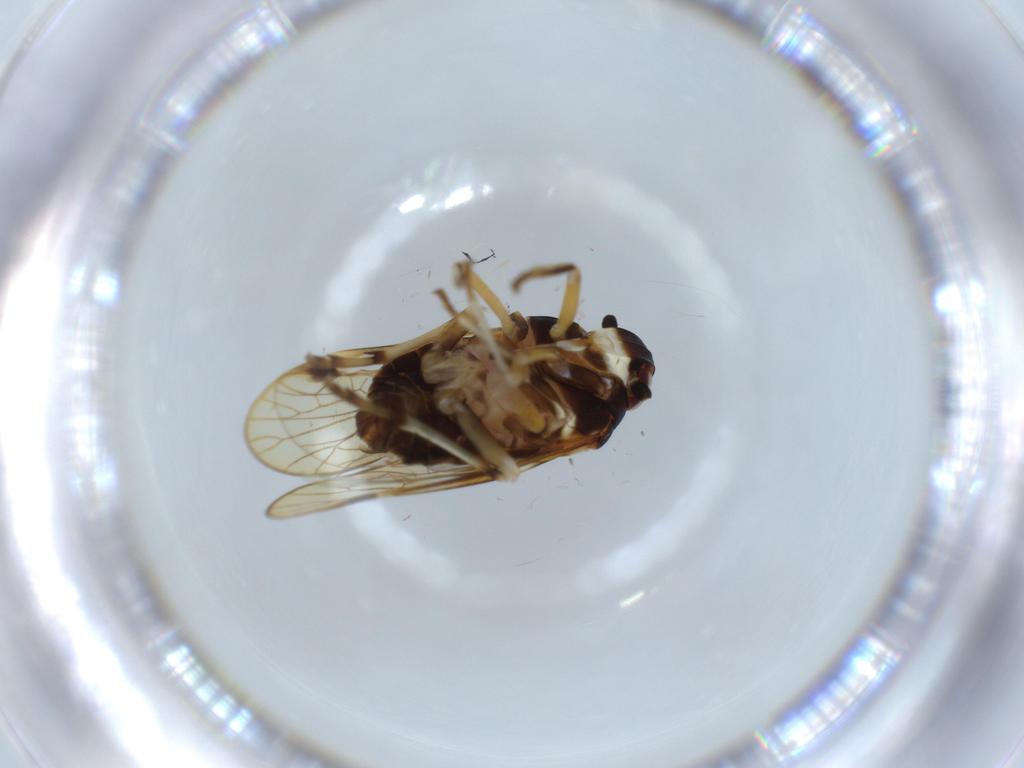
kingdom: Animalia
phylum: Arthropoda
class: Insecta
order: Hemiptera
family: Kinnaridae
